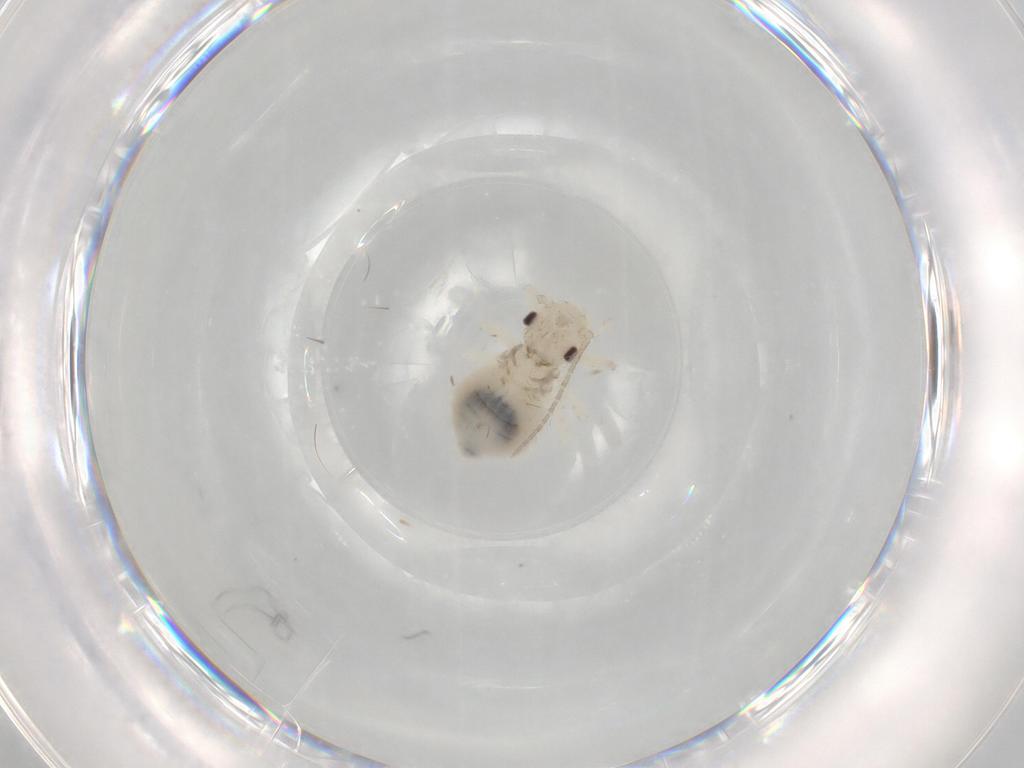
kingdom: Animalia
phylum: Arthropoda
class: Insecta
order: Psocodea
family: Amphipsocidae
